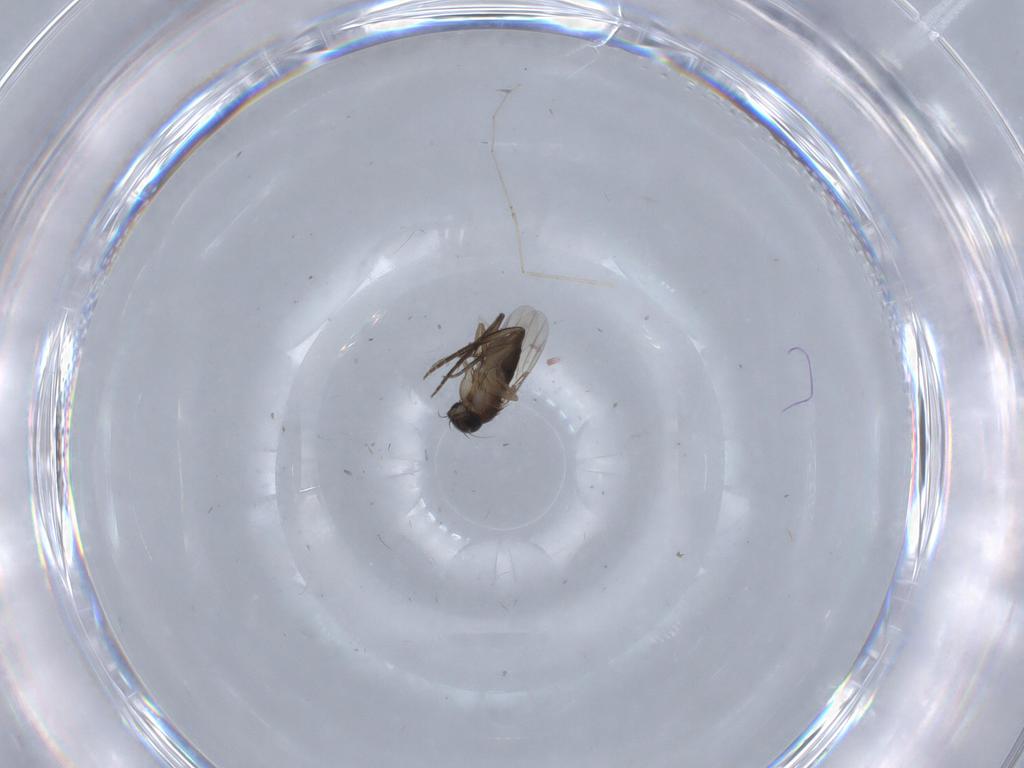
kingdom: Animalia
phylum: Arthropoda
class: Insecta
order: Diptera
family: Phoridae
